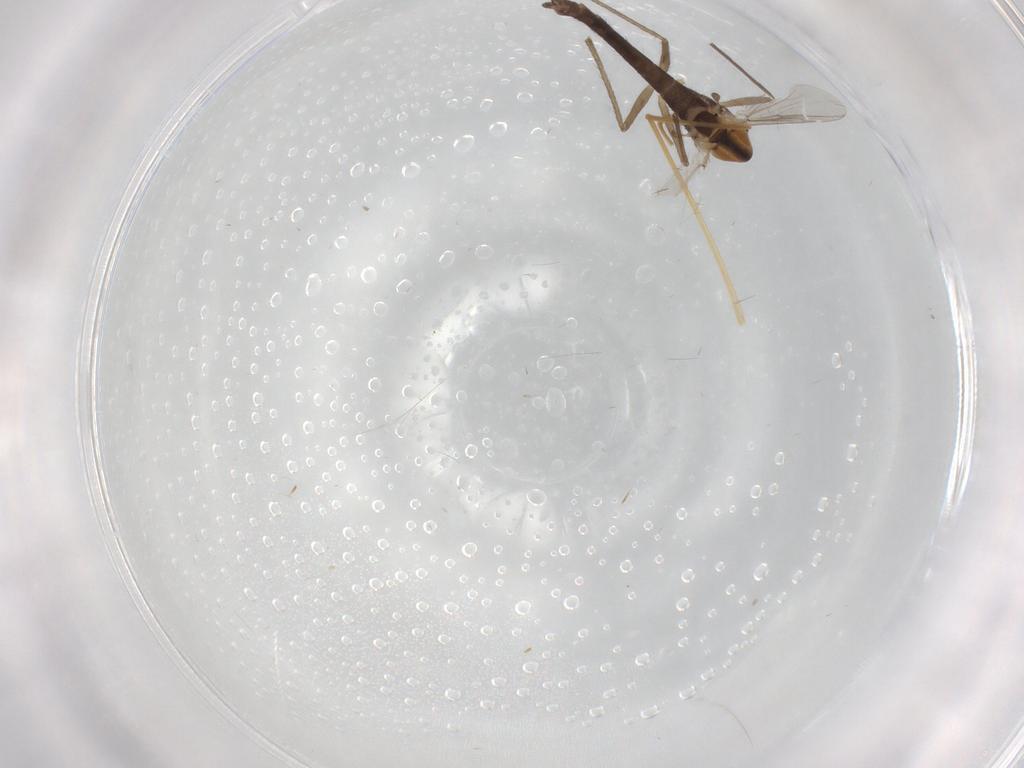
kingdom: Animalia
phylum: Arthropoda
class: Insecta
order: Diptera
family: Chironomidae
